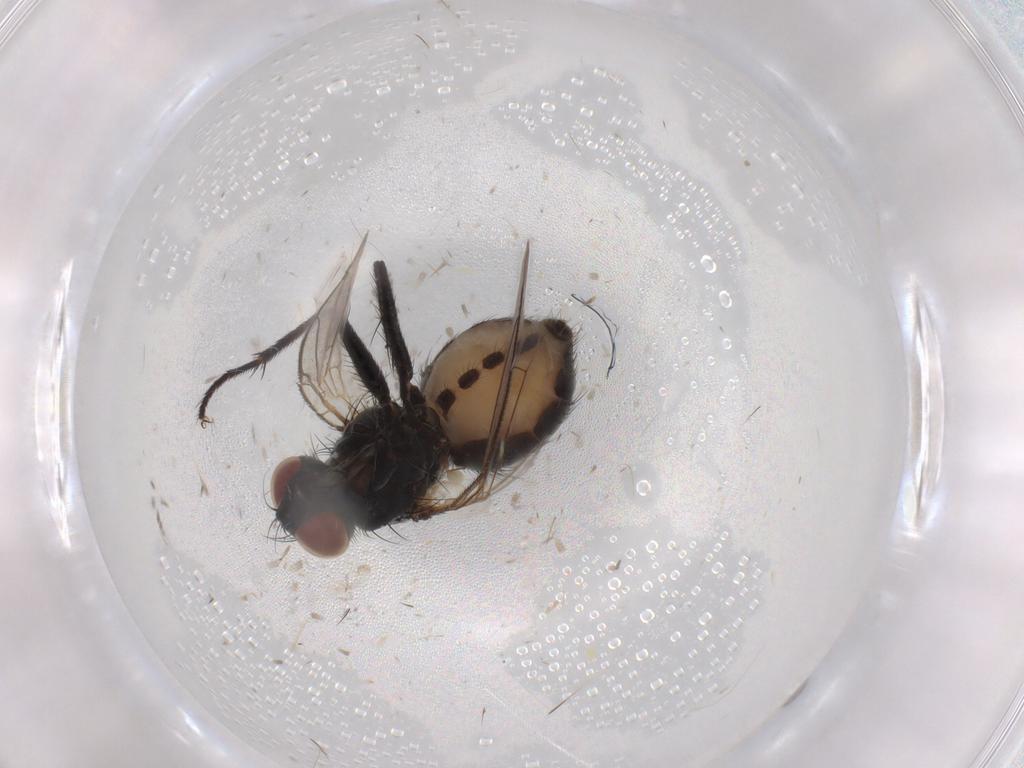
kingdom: Animalia
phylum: Arthropoda
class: Insecta
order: Diptera
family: Muscidae
